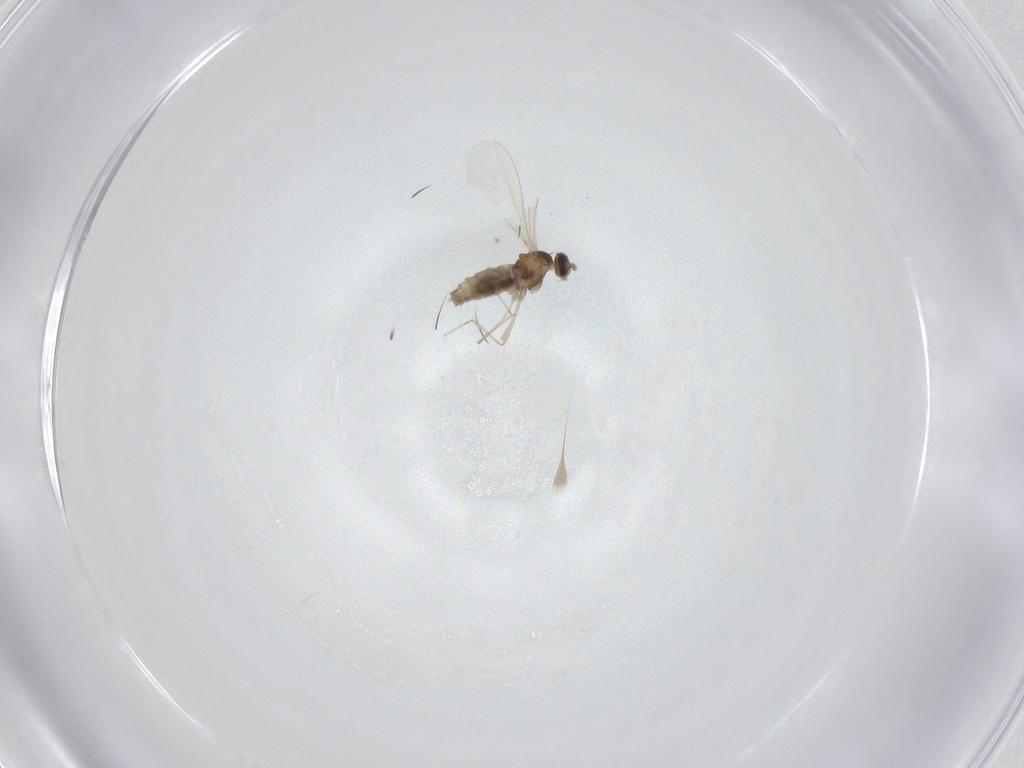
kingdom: Animalia
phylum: Arthropoda
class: Insecta
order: Diptera
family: Cecidomyiidae
